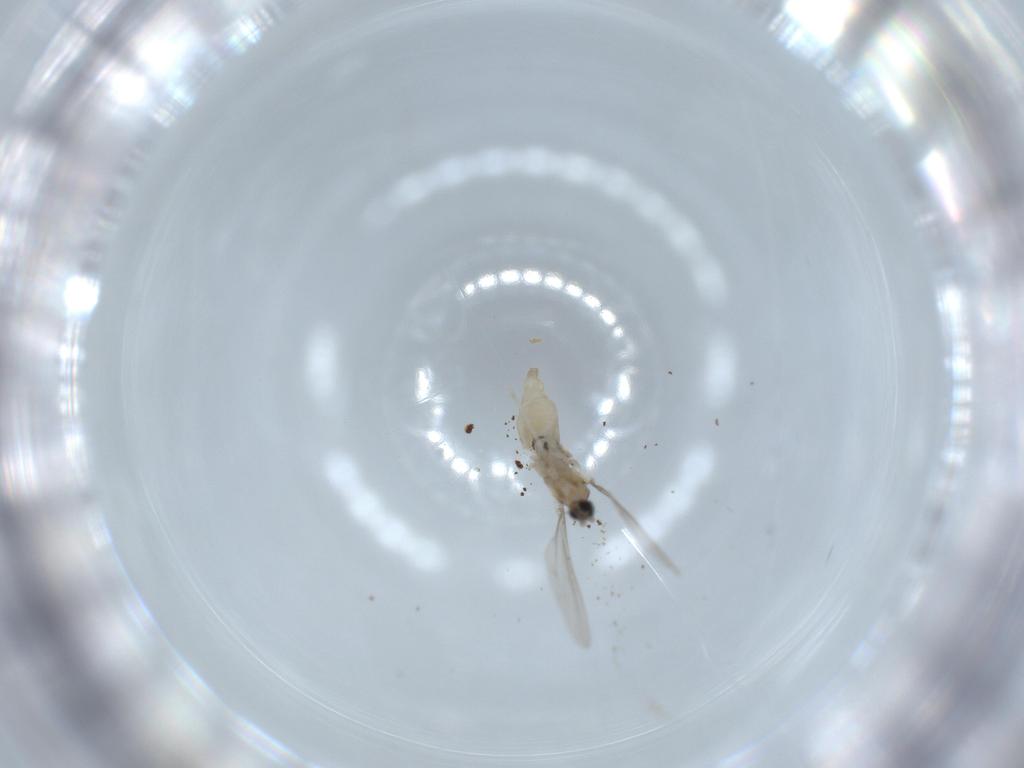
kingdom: Animalia
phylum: Arthropoda
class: Insecta
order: Diptera
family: Cecidomyiidae
